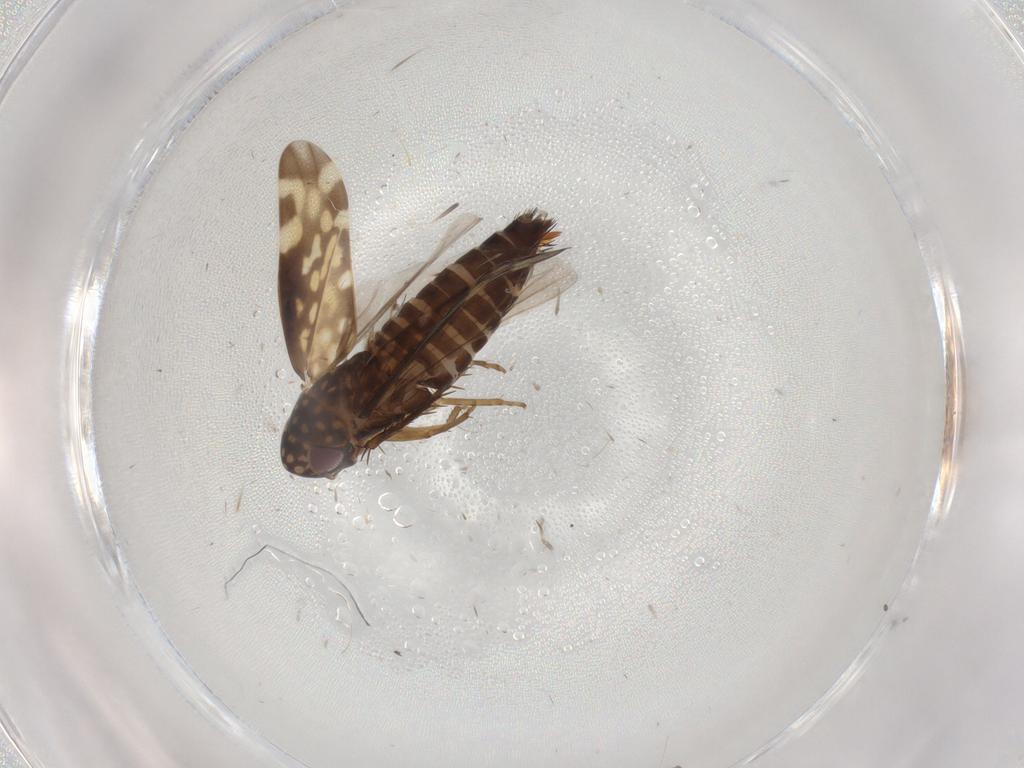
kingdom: Animalia
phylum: Arthropoda
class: Insecta
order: Hemiptera
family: Cicadellidae
